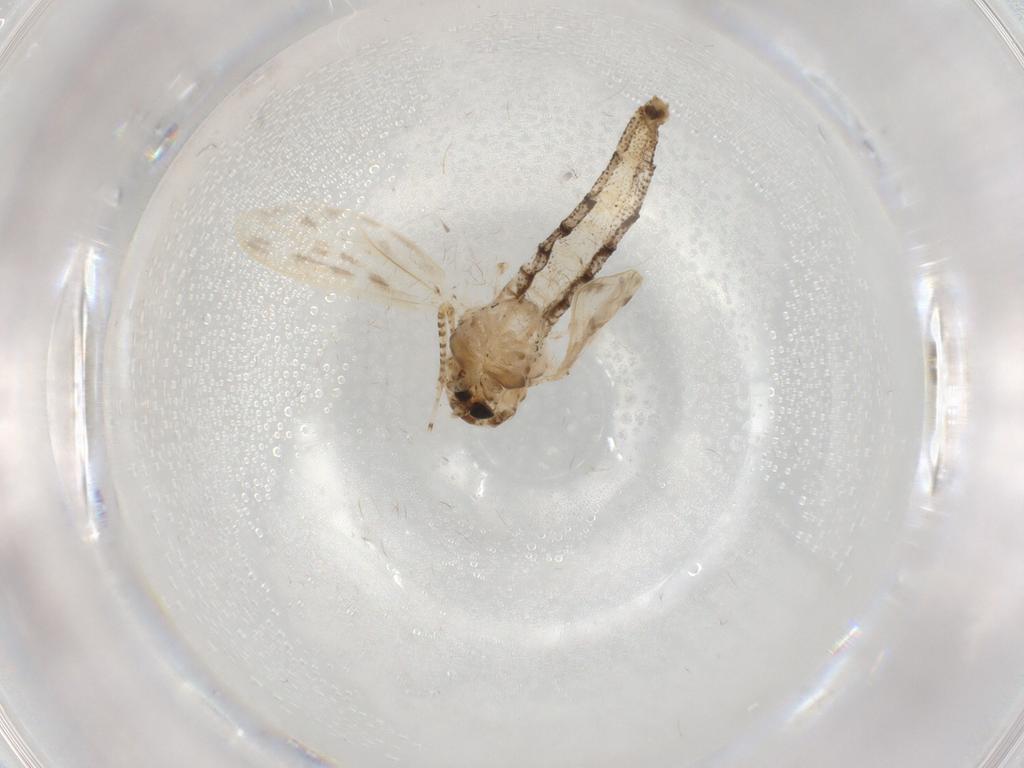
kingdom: Animalia
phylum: Arthropoda
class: Insecta
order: Diptera
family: Chironomidae
